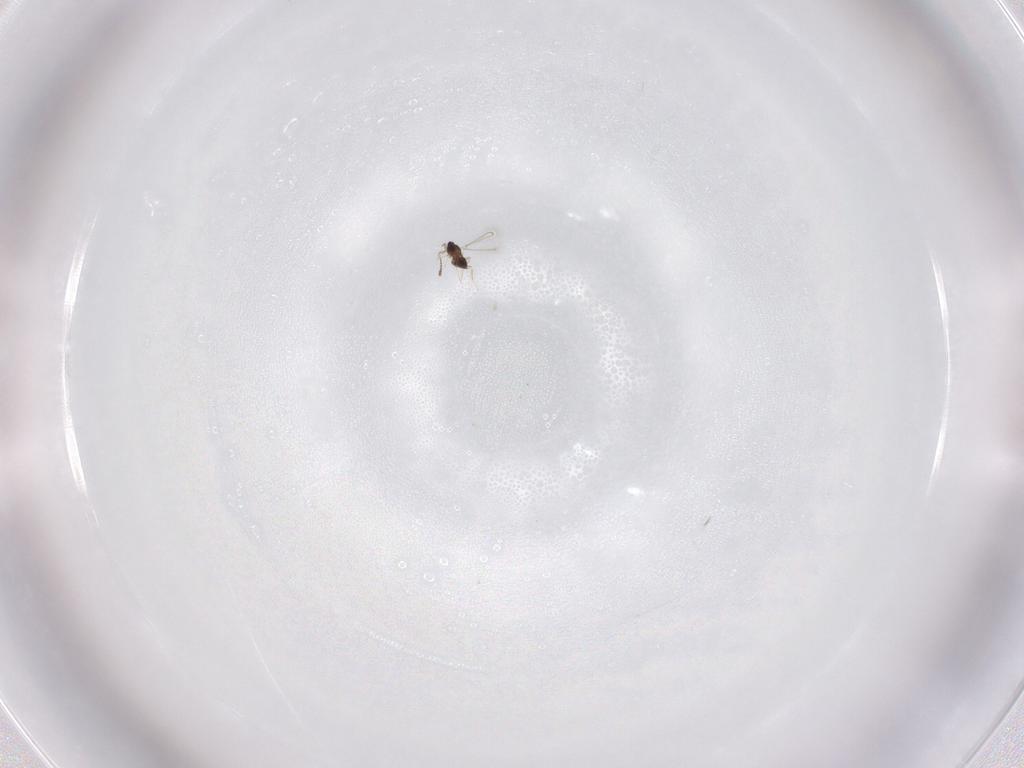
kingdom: Animalia
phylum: Arthropoda
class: Insecta
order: Hymenoptera
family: Mymaridae
